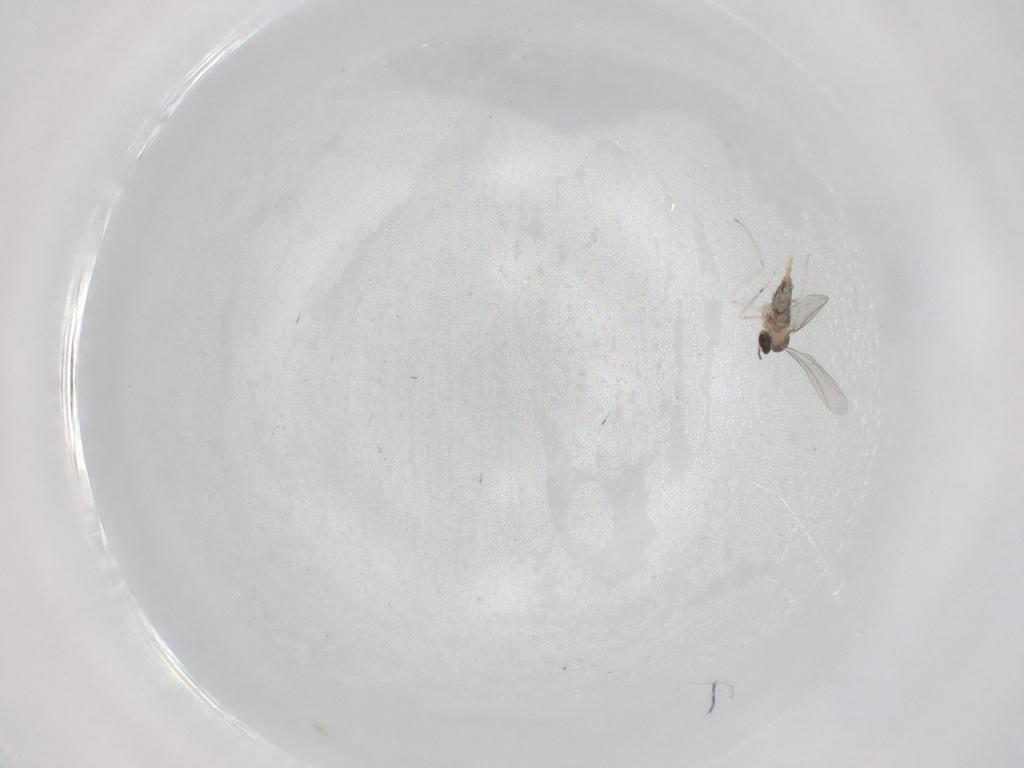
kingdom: Animalia
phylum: Arthropoda
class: Insecta
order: Diptera
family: Cecidomyiidae
